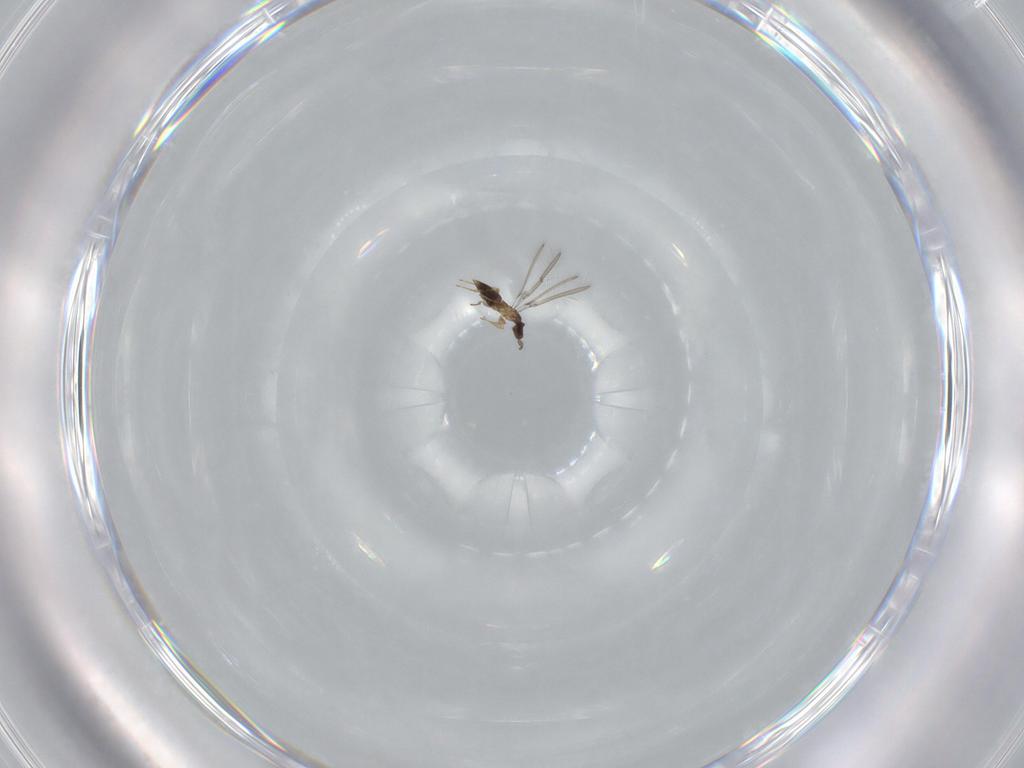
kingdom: Animalia
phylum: Arthropoda
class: Insecta
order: Hymenoptera
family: Mymaridae
